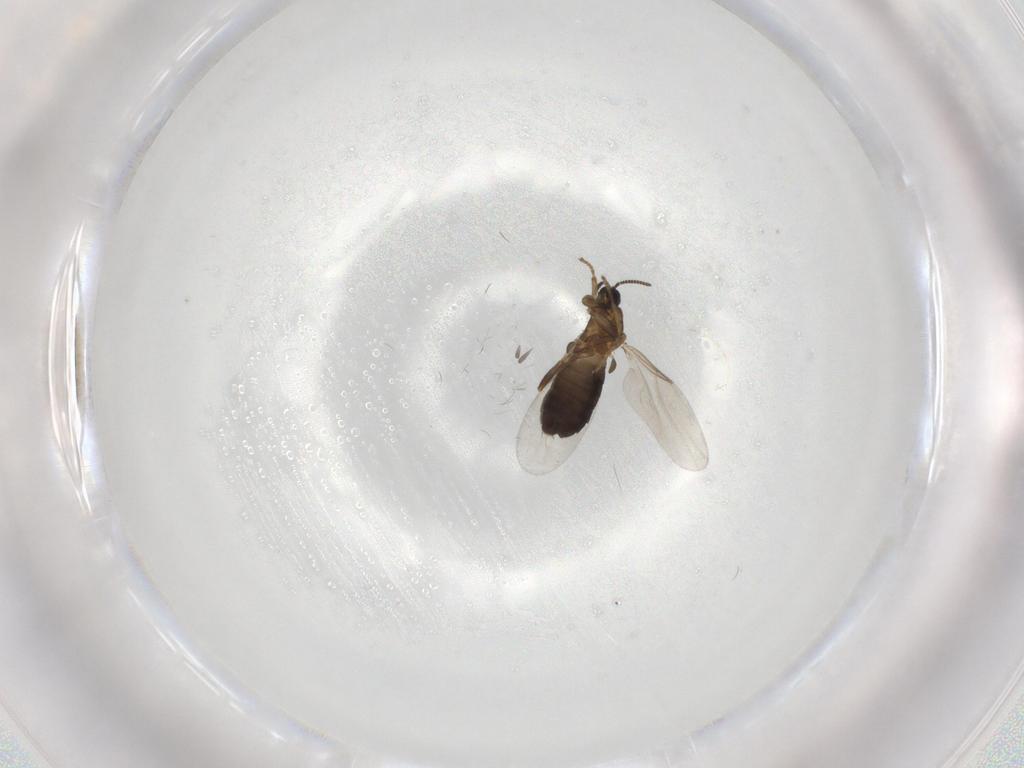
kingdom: Animalia
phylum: Arthropoda
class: Insecta
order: Diptera
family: Scatopsidae
